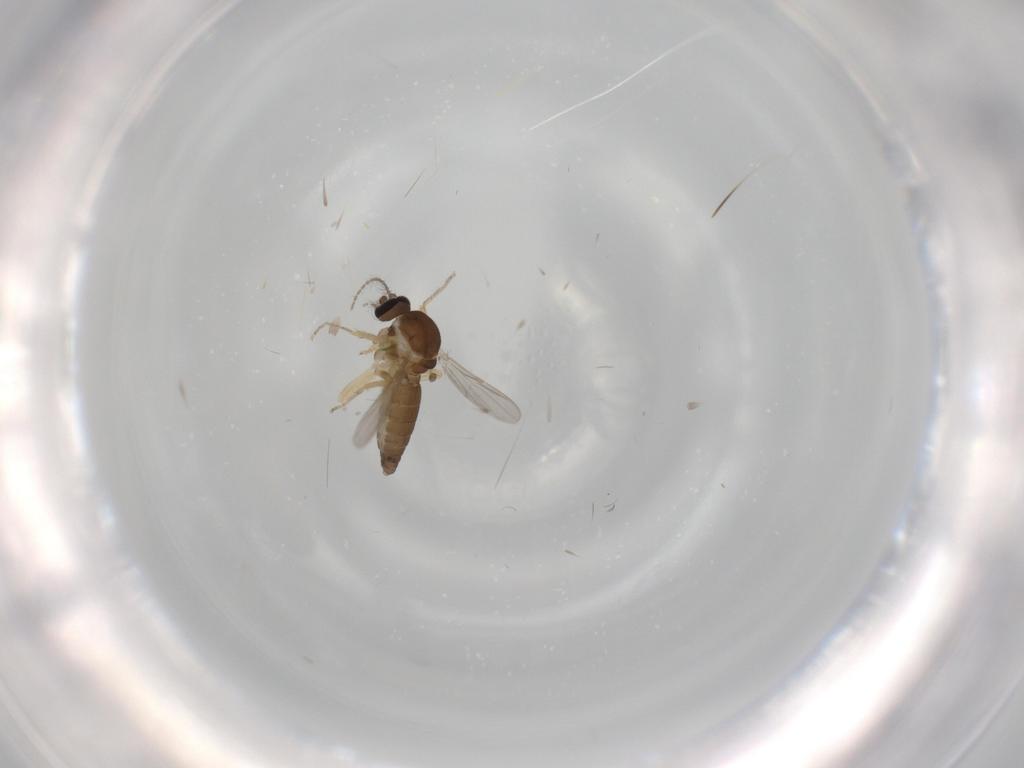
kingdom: Animalia
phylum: Arthropoda
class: Insecta
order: Diptera
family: Ceratopogonidae
